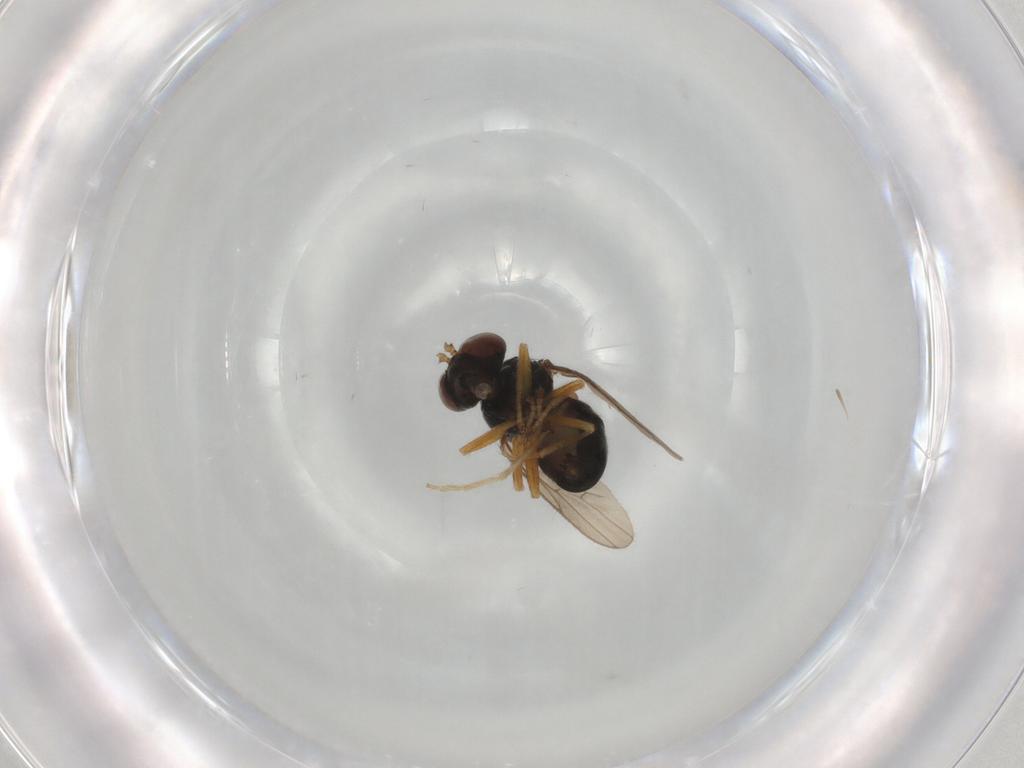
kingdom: Animalia
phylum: Arthropoda
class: Insecta
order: Diptera
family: Ephydridae
